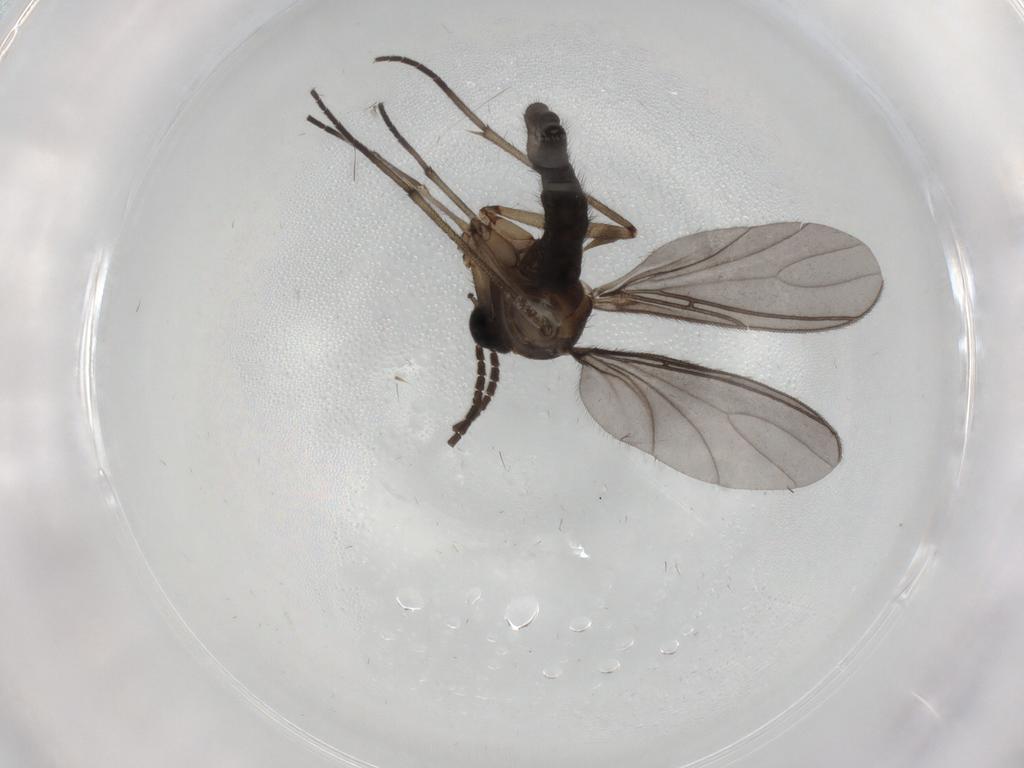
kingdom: Animalia
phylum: Arthropoda
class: Insecta
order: Diptera
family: Sciaridae
